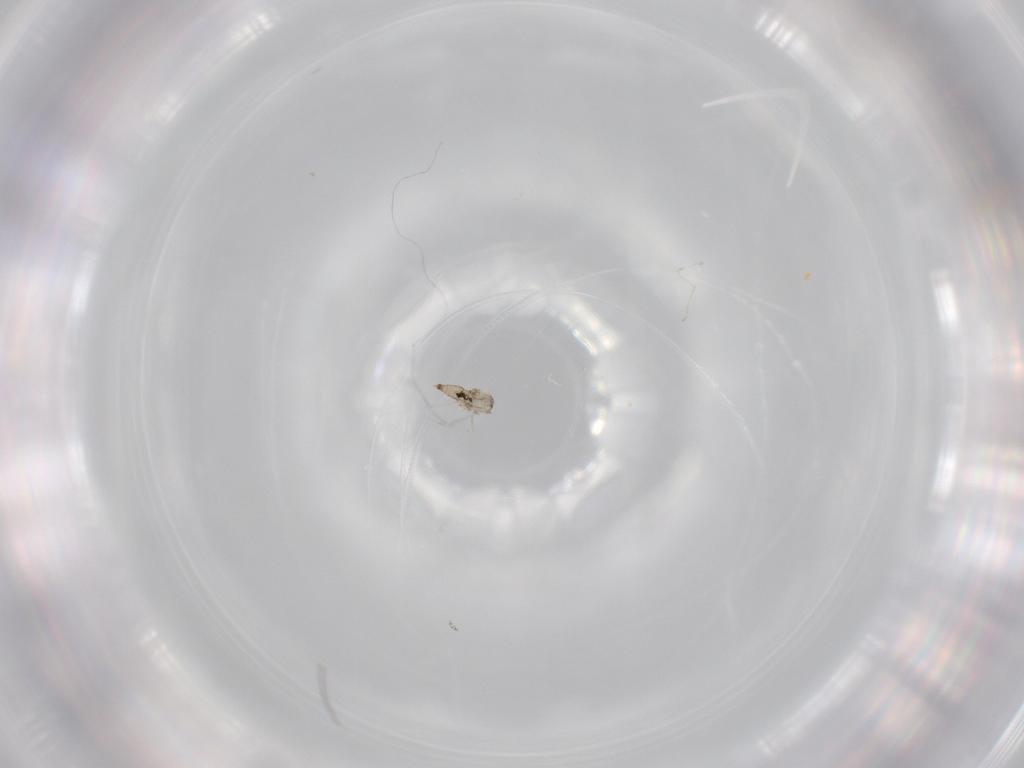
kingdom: Animalia
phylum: Arthropoda
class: Insecta
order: Diptera
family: Cecidomyiidae
